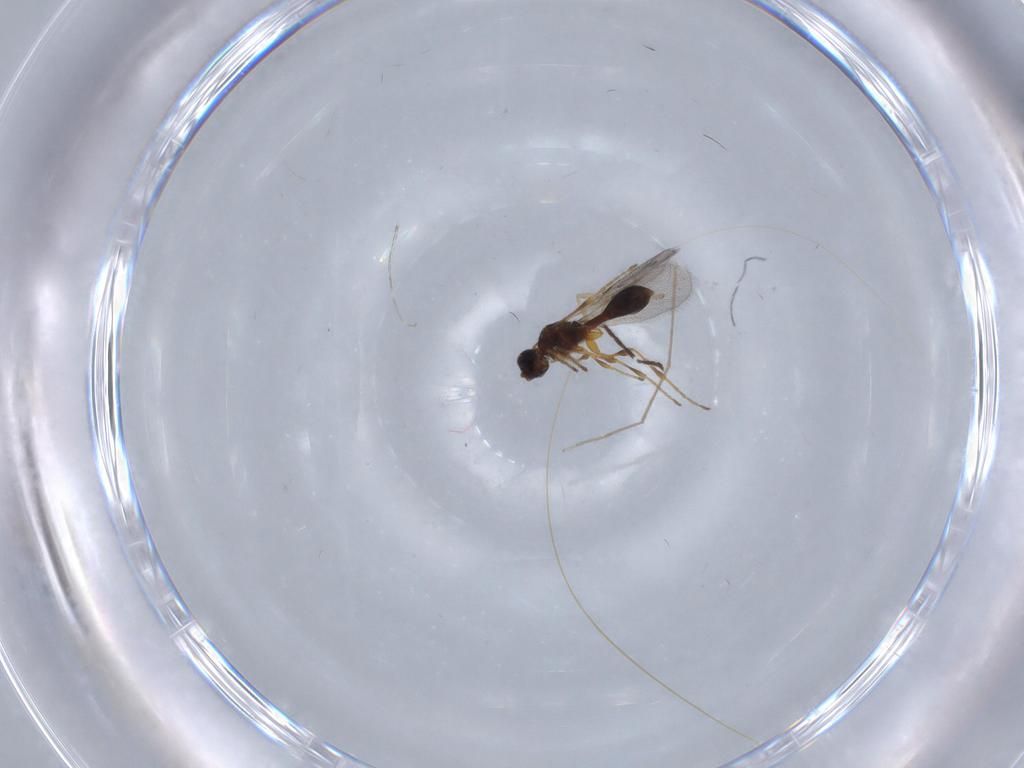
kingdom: Animalia
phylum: Arthropoda
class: Insecta
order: Hymenoptera
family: Diapriidae
